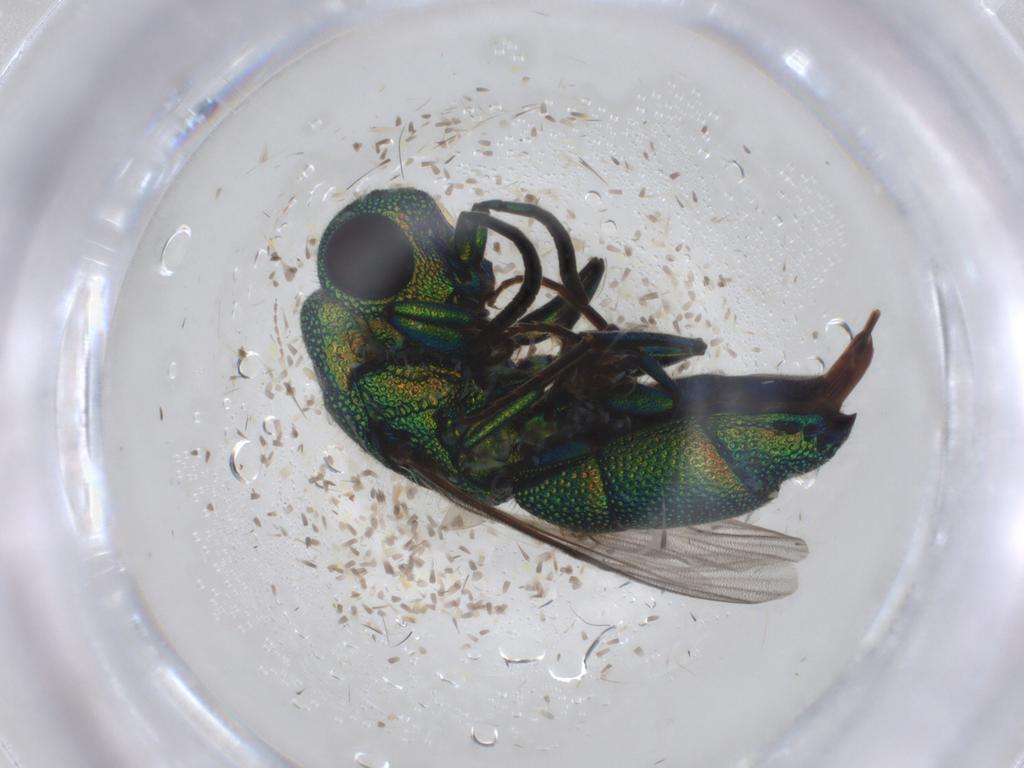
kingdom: Animalia
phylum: Arthropoda
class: Insecta
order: Hymenoptera
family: Chrysididae
